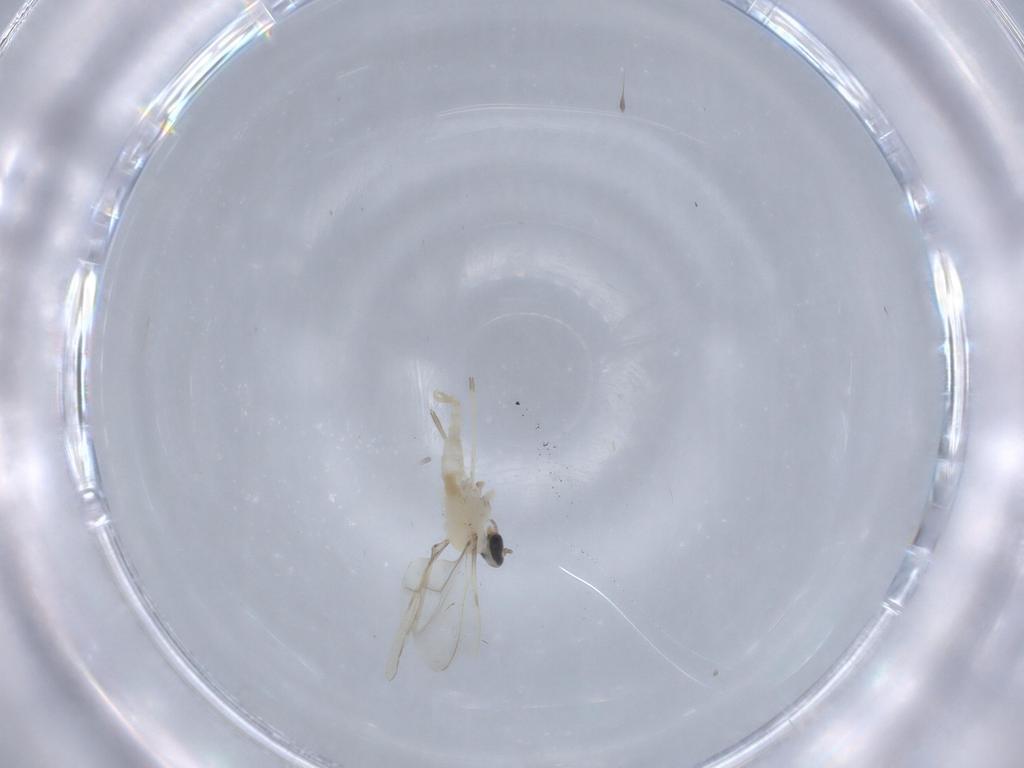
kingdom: Animalia
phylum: Arthropoda
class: Insecta
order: Diptera
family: Cecidomyiidae
